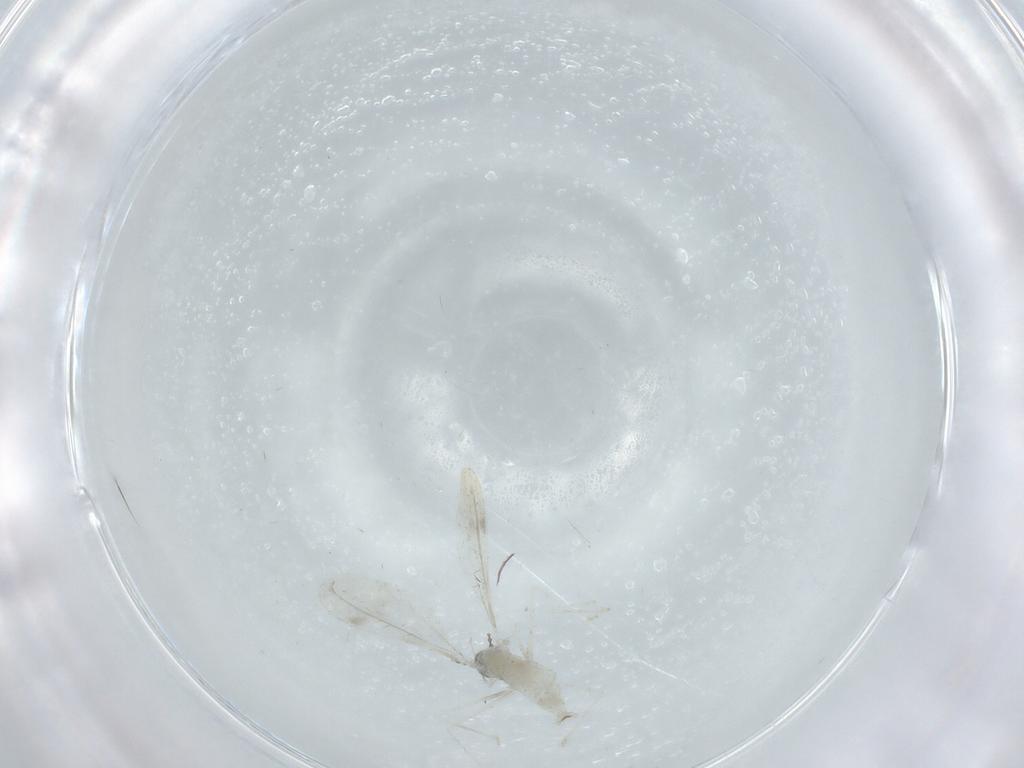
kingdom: Animalia
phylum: Arthropoda
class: Insecta
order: Diptera
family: Cecidomyiidae
